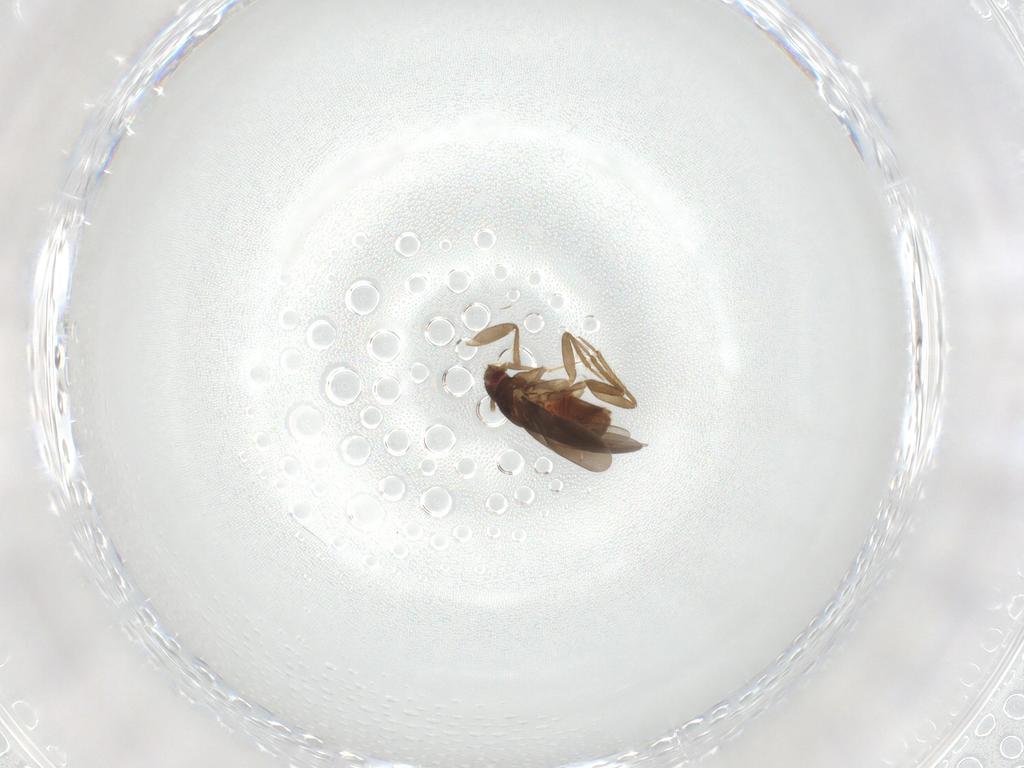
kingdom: Animalia
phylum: Arthropoda
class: Insecta
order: Hemiptera
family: Ceratocombidae
